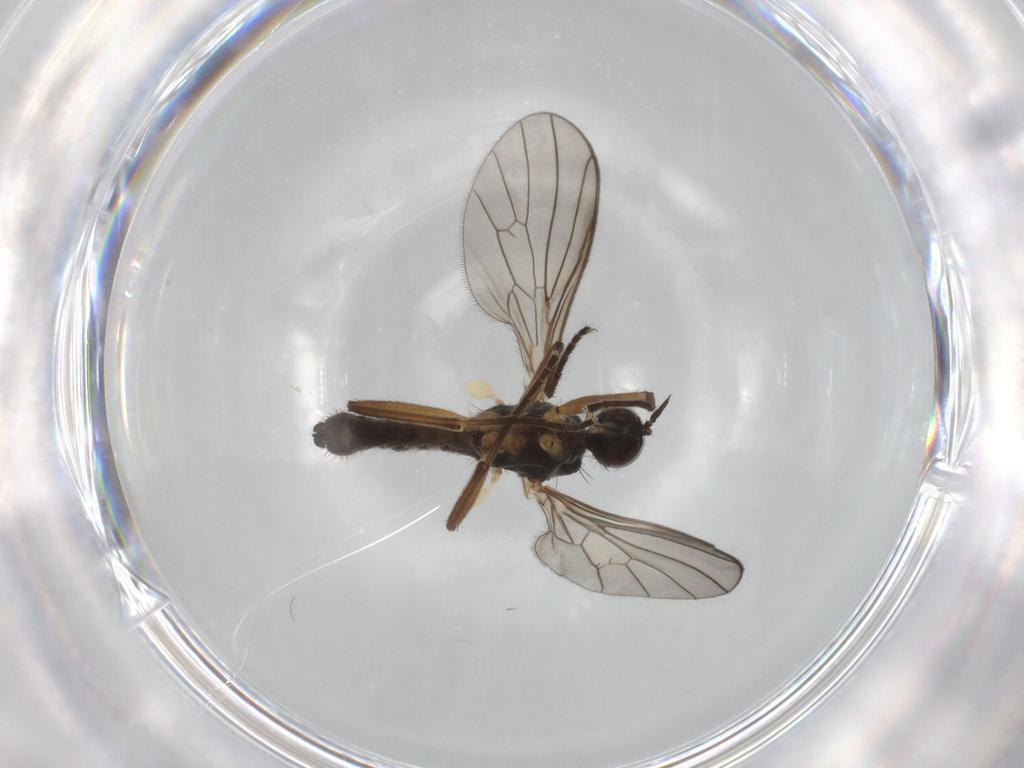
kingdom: Animalia
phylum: Arthropoda
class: Insecta
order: Diptera
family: Empididae
